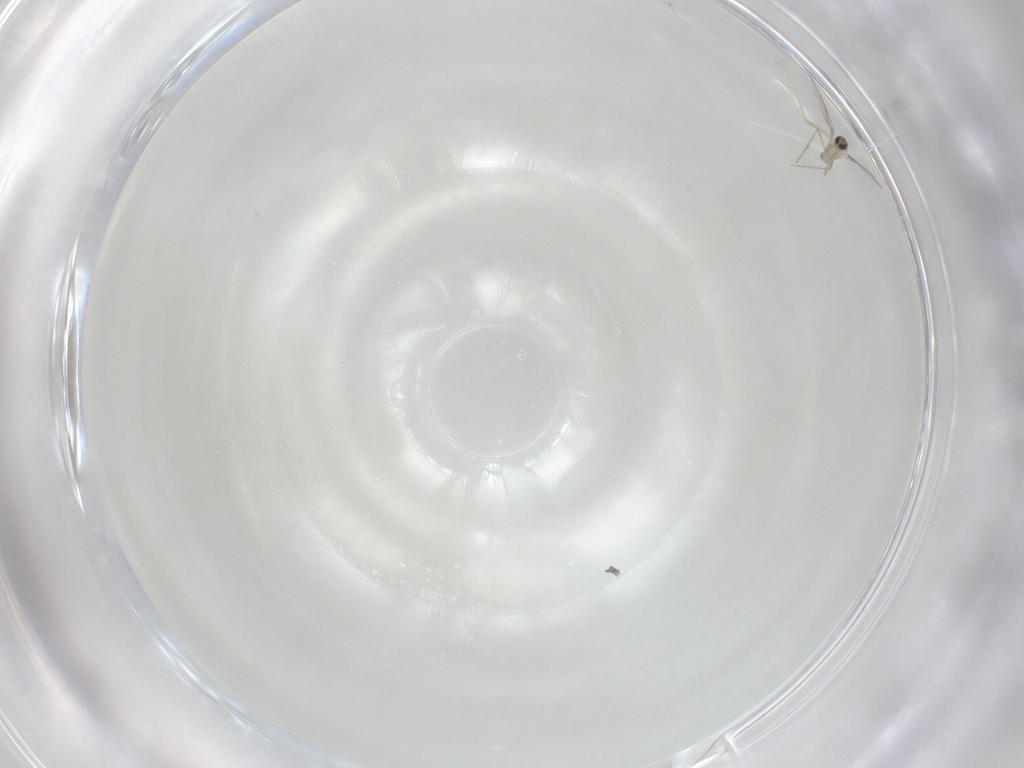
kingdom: Animalia
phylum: Arthropoda
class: Insecta
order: Diptera
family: Cecidomyiidae
